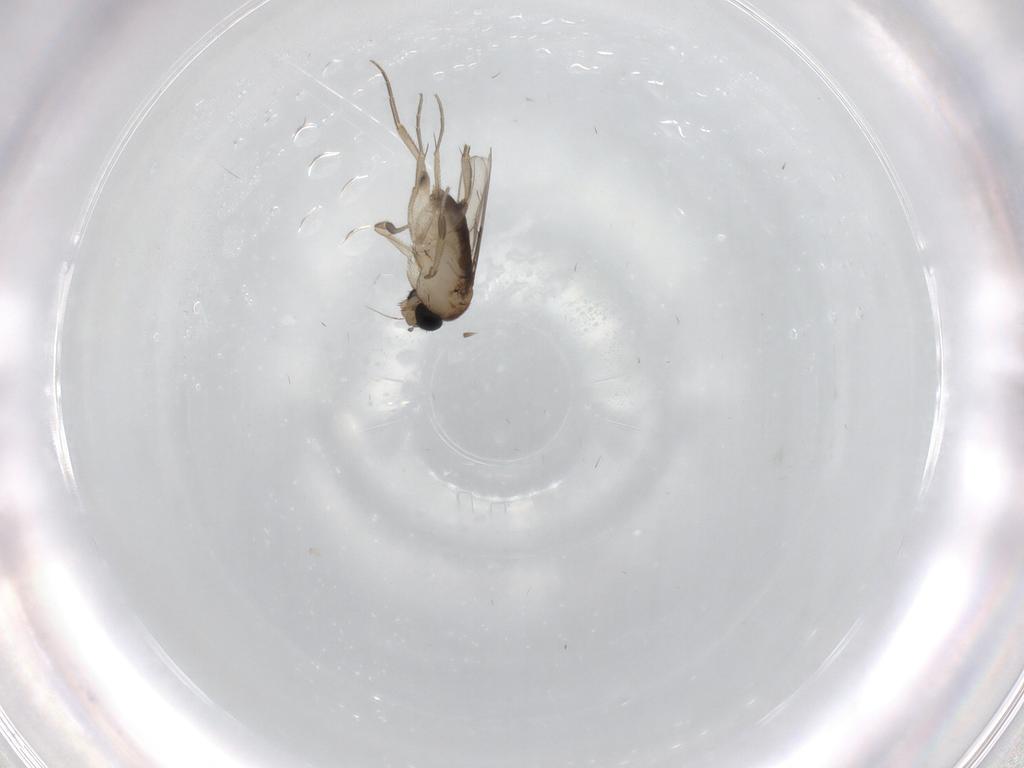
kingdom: Animalia
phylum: Arthropoda
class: Insecta
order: Diptera
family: Phoridae
